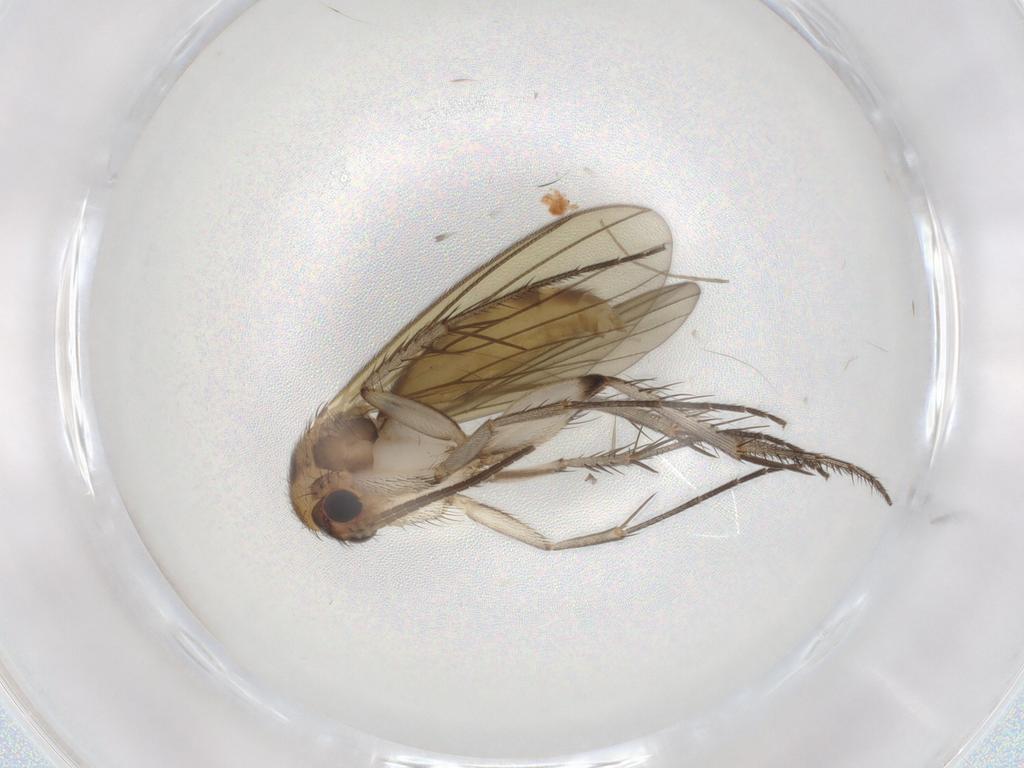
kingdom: Animalia
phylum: Arthropoda
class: Insecta
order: Diptera
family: Mycetophilidae
